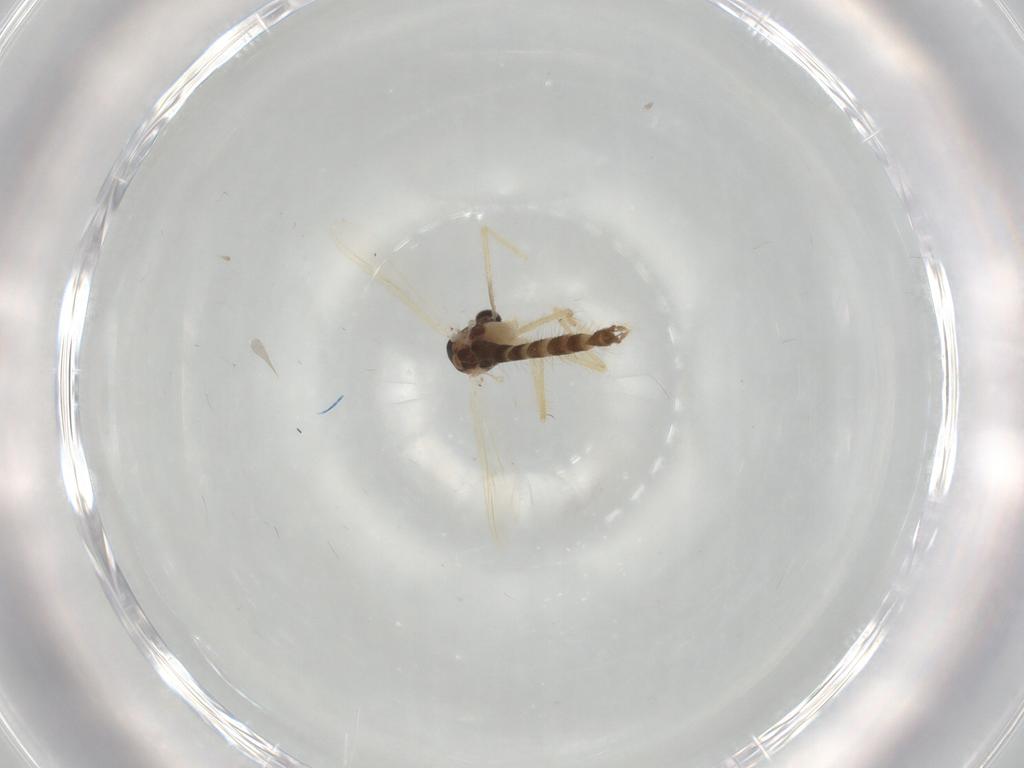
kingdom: Animalia
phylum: Arthropoda
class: Insecta
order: Diptera
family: Chironomidae
